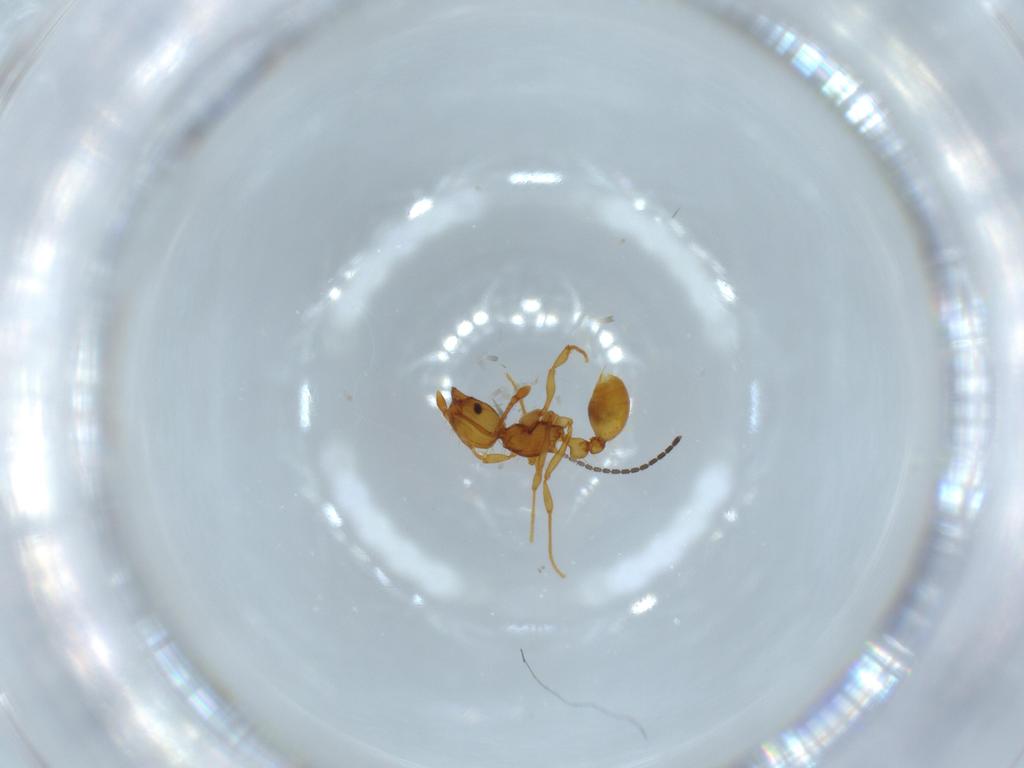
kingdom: Animalia
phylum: Arthropoda
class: Insecta
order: Hymenoptera
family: Formicidae
